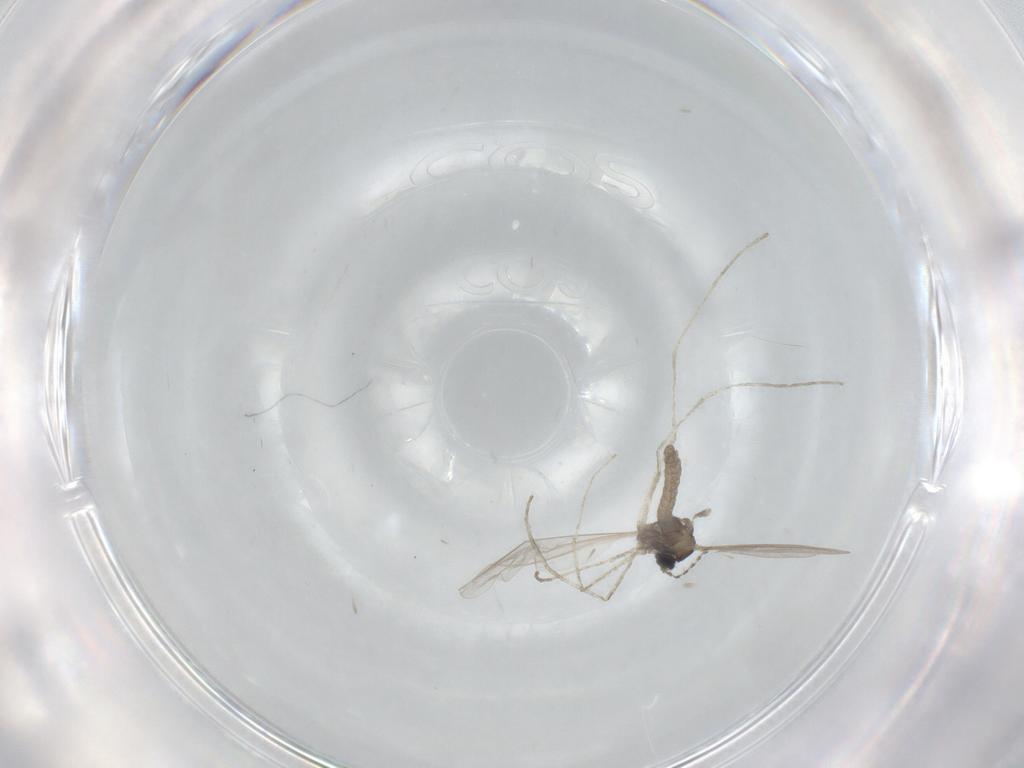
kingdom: Animalia
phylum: Arthropoda
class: Insecta
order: Diptera
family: Cecidomyiidae
